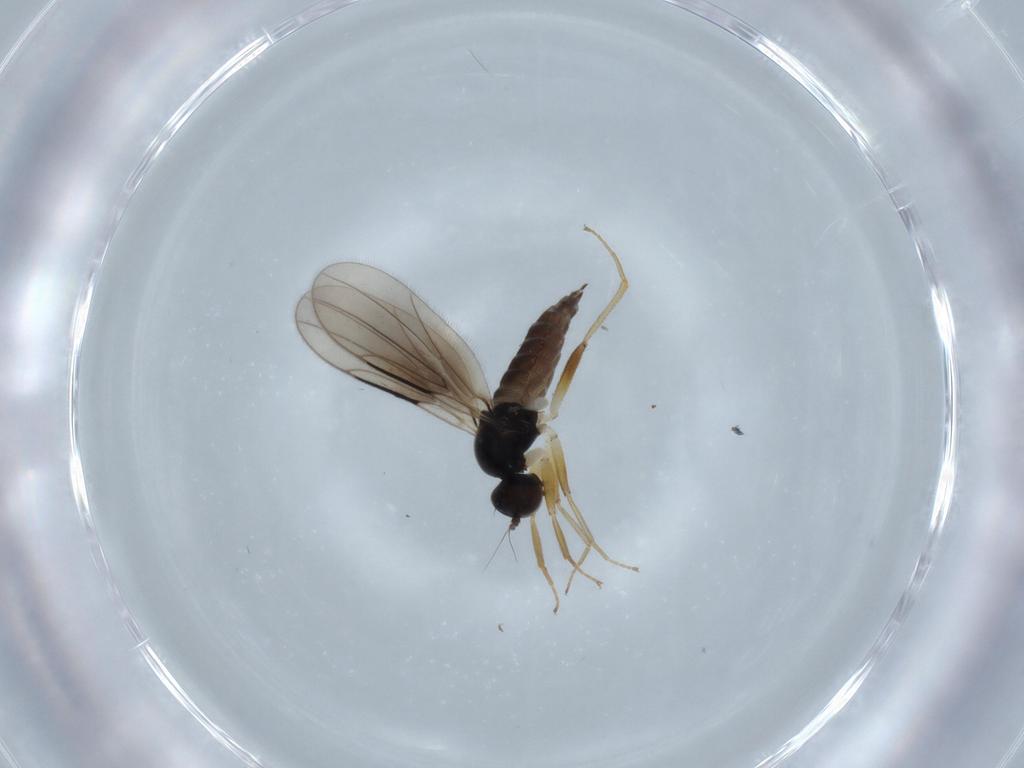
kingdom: Animalia
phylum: Arthropoda
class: Insecta
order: Diptera
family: Hybotidae
